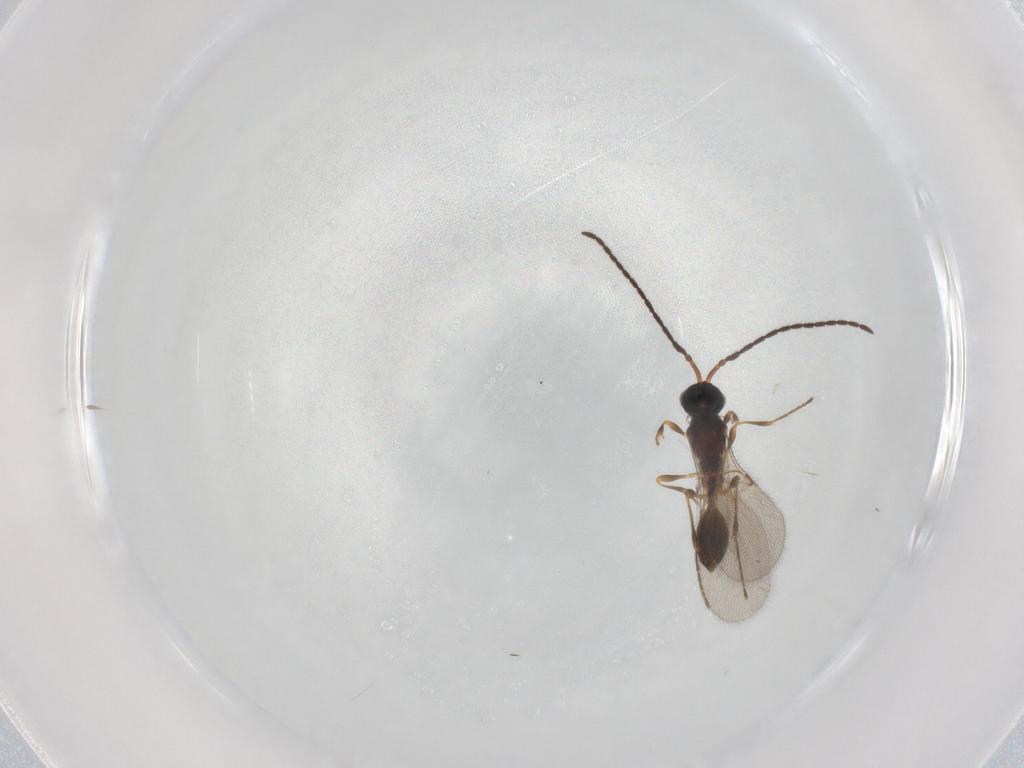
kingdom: Animalia
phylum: Arthropoda
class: Insecta
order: Hymenoptera
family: Diapriidae
